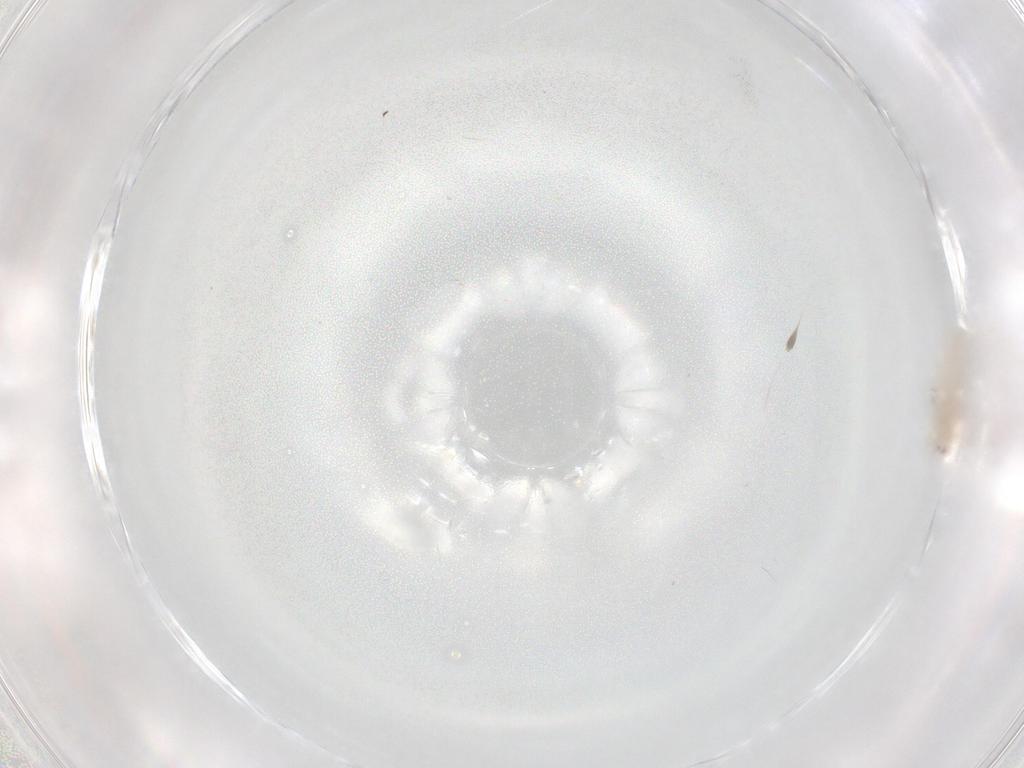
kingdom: Animalia
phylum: Arthropoda
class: Insecta
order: Diptera
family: Chironomidae
